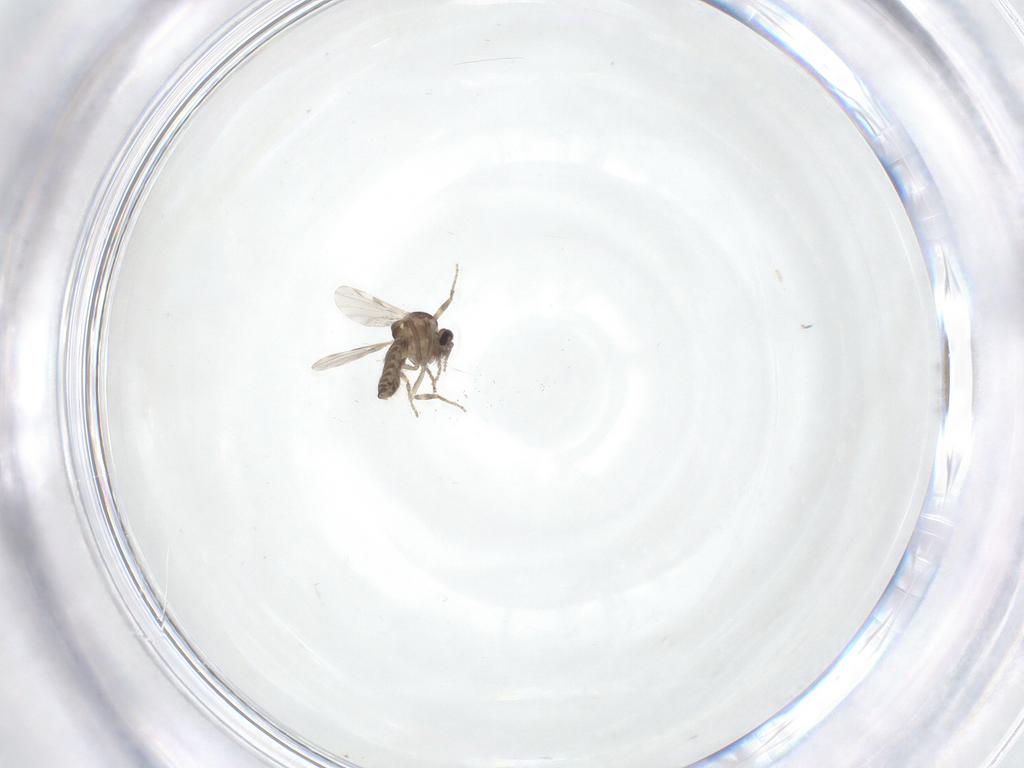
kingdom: Animalia
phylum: Arthropoda
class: Insecta
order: Diptera
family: Ceratopogonidae
